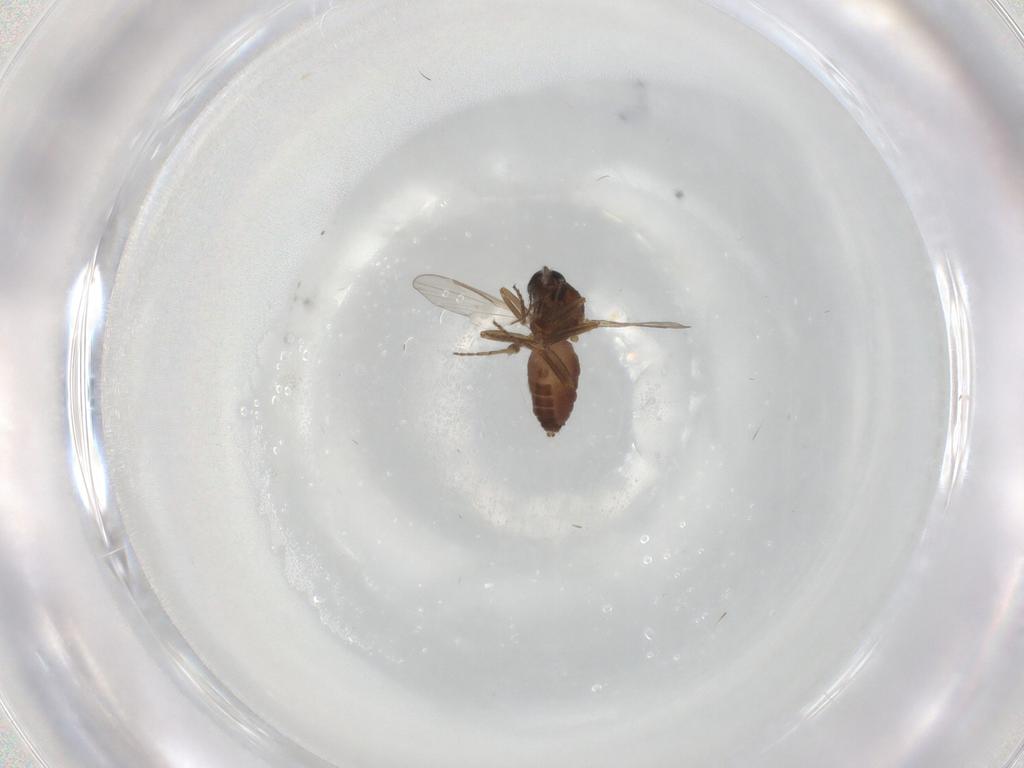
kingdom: Animalia
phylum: Arthropoda
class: Insecta
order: Diptera
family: Ceratopogonidae
